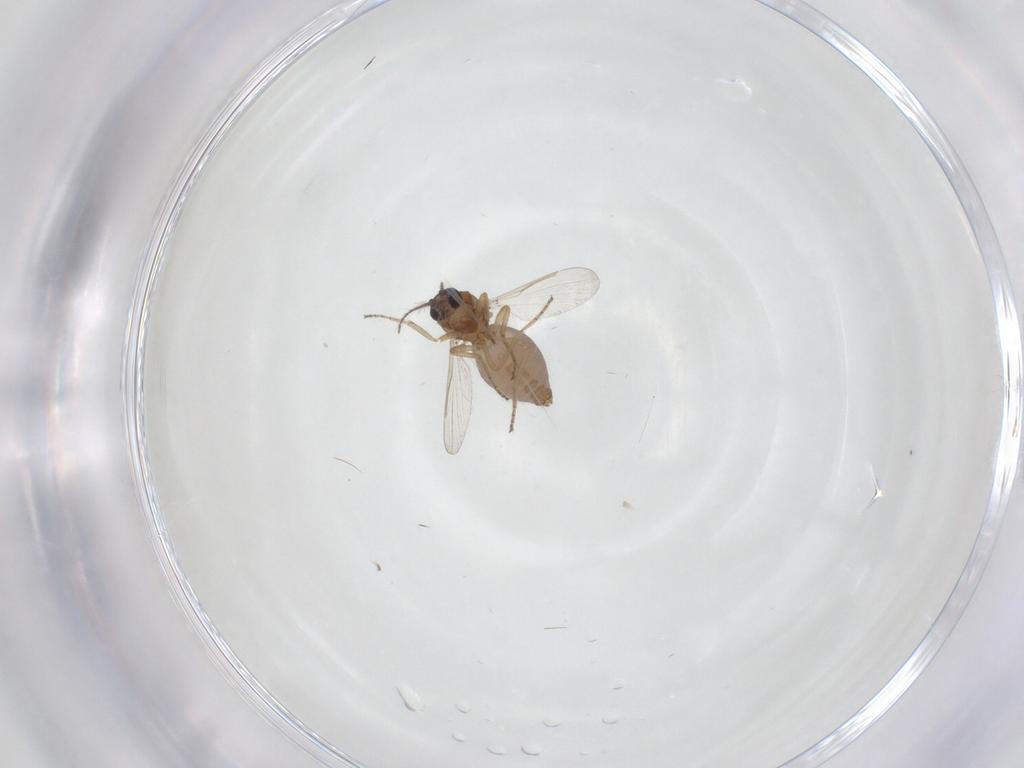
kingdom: Animalia
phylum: Arthropoda
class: Insecta
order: Diptera
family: Ceratopogonidae
